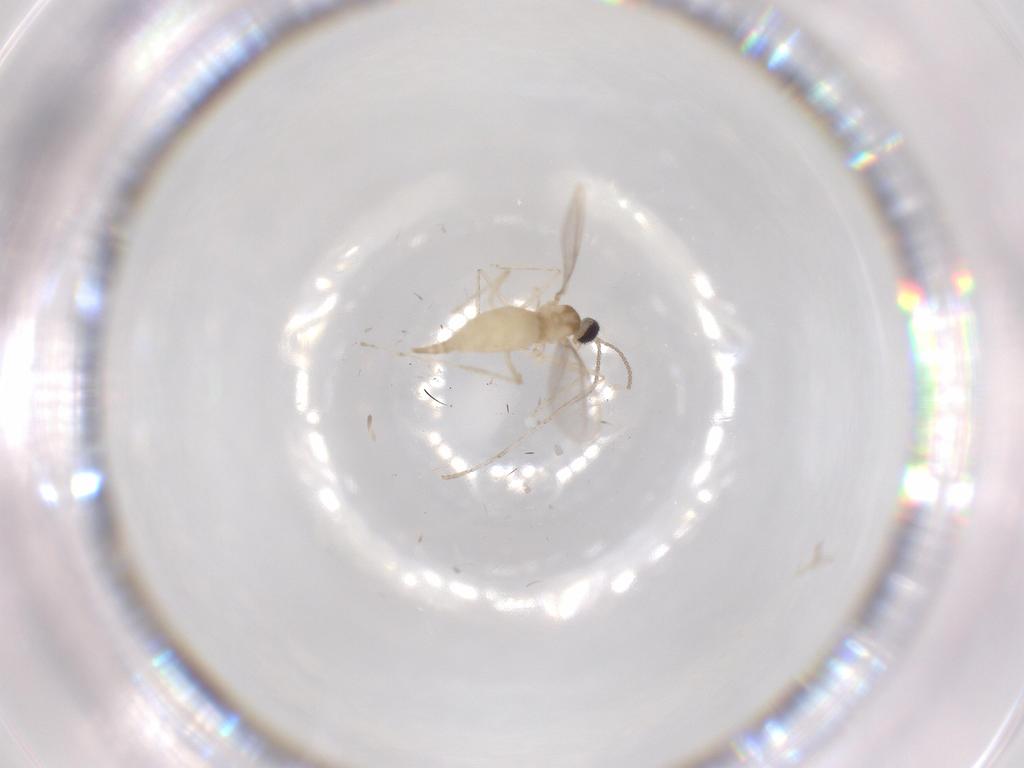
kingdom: Animalia
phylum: Arthropoda
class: Insecta
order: Diptera
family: Cecidomyiidae
